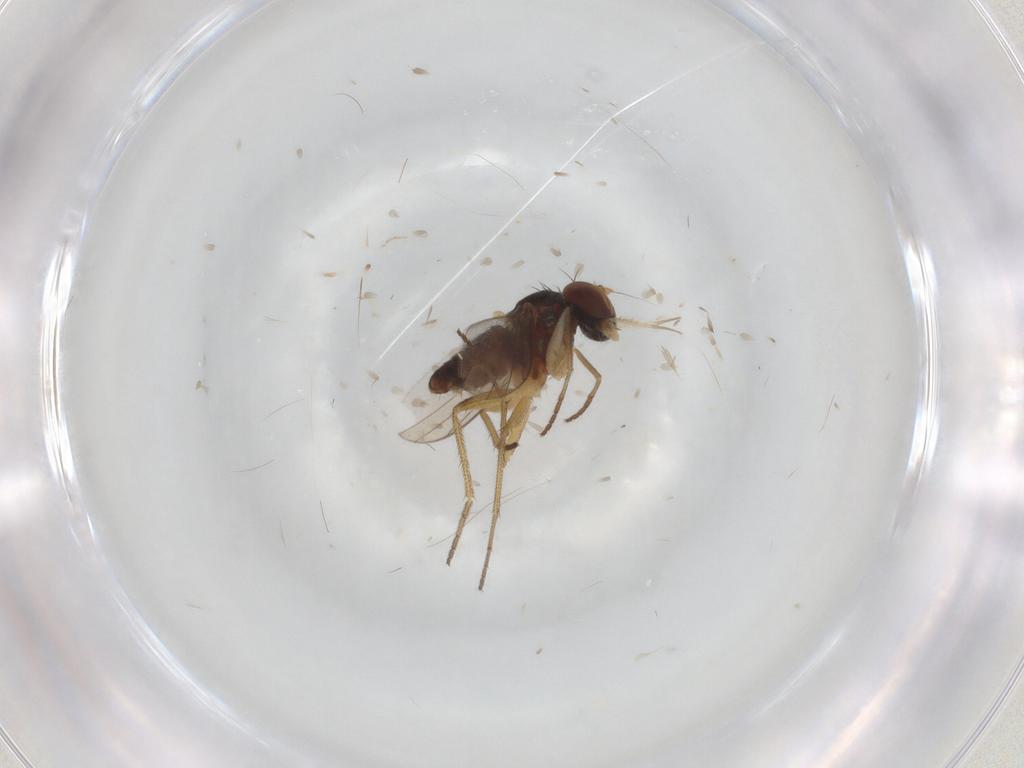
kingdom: Animalia
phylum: Arthropoda
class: Insecta
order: Diptera
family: Dolichopodidae
